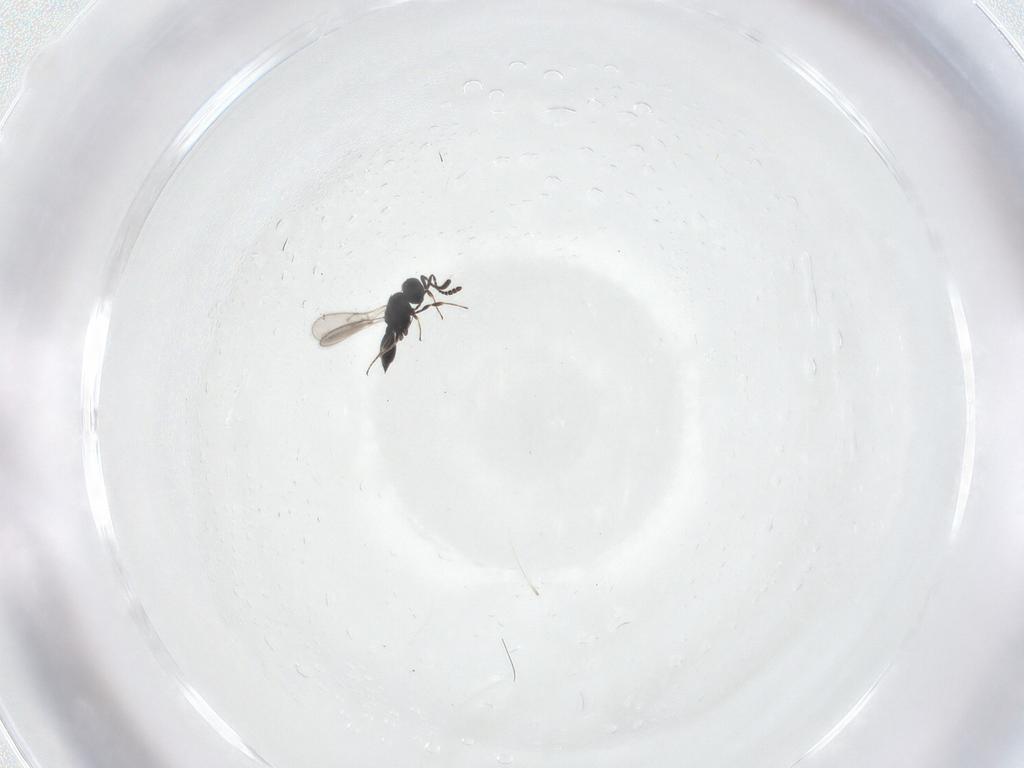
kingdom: Animalia
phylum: Arthropoda
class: Insecta
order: Hymenoptera
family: Scelionidae
